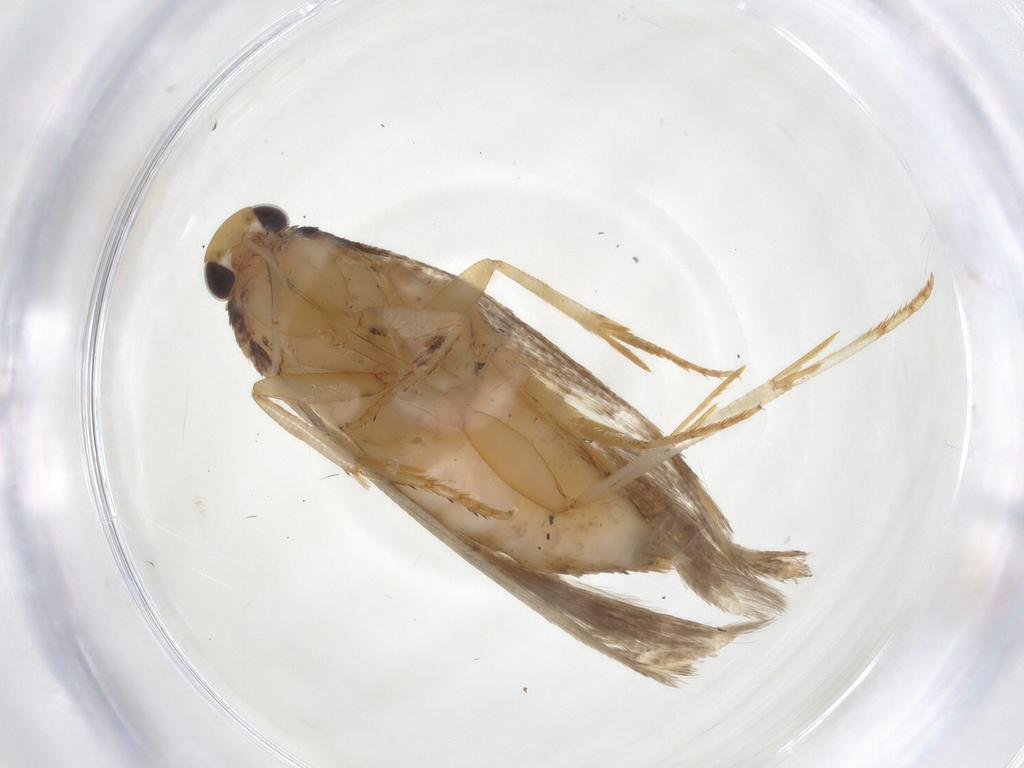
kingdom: Animalia
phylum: Arthropoda
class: Insecta
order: Lepidoptera
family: Gelechiidae
